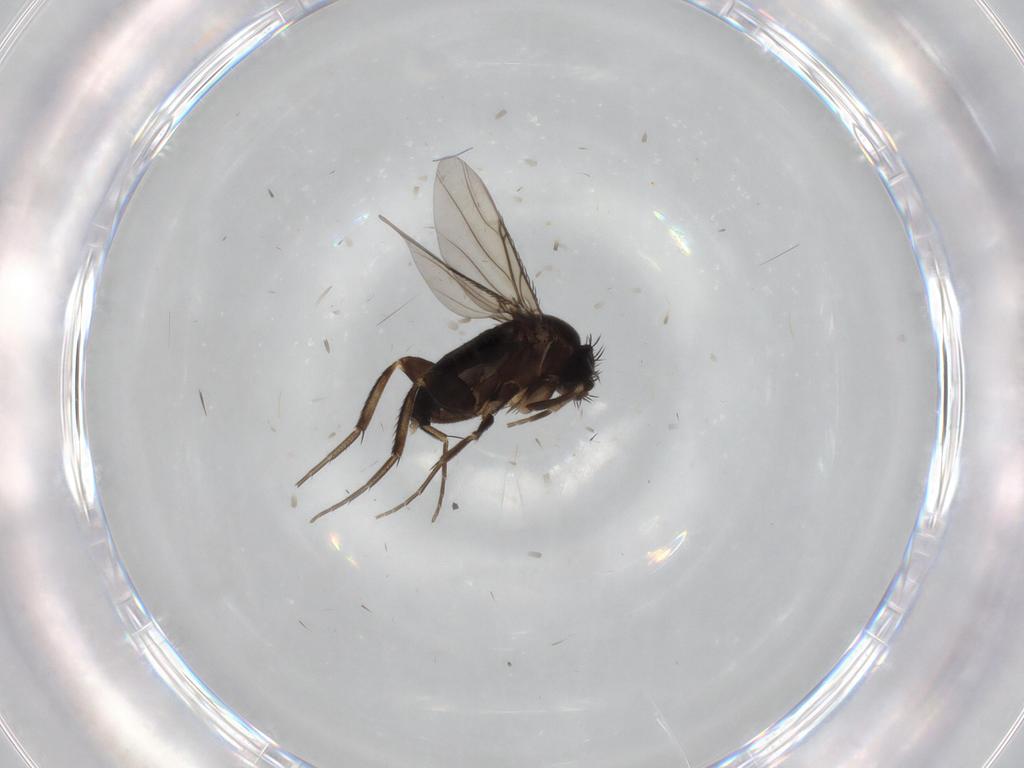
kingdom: Animalia
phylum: Arthropoda
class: Insecta
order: Diptera
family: Phoridae
